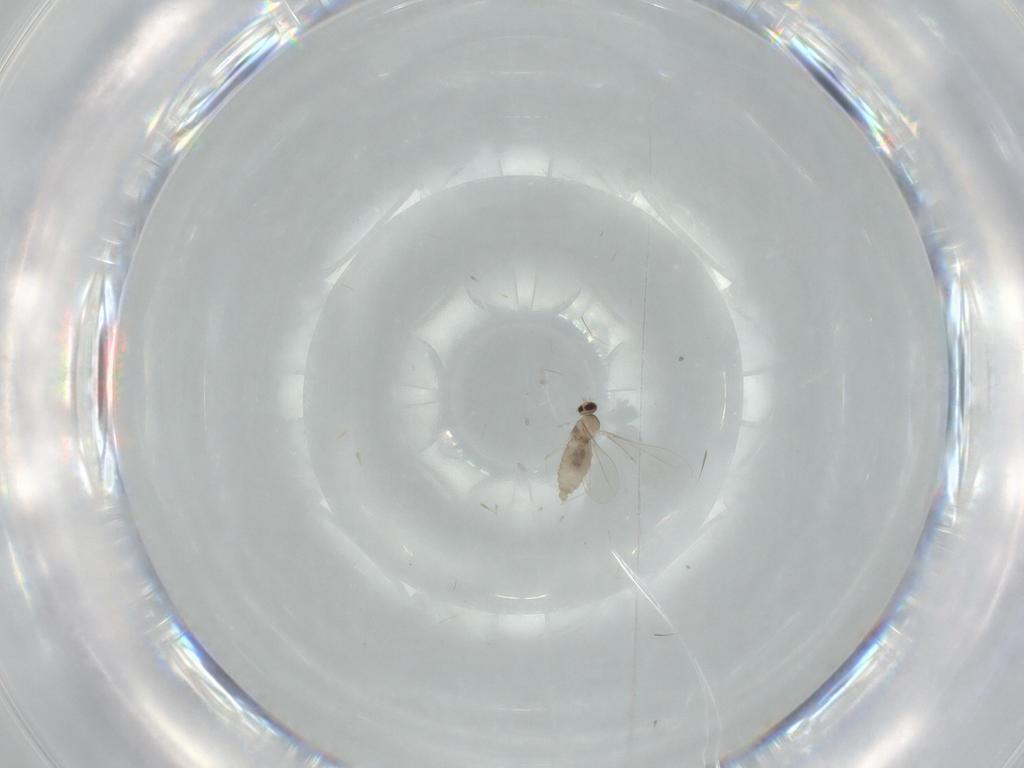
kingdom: Animalia
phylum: Arthropoda
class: Insecta
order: Diptera
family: Cecidomyiidae
